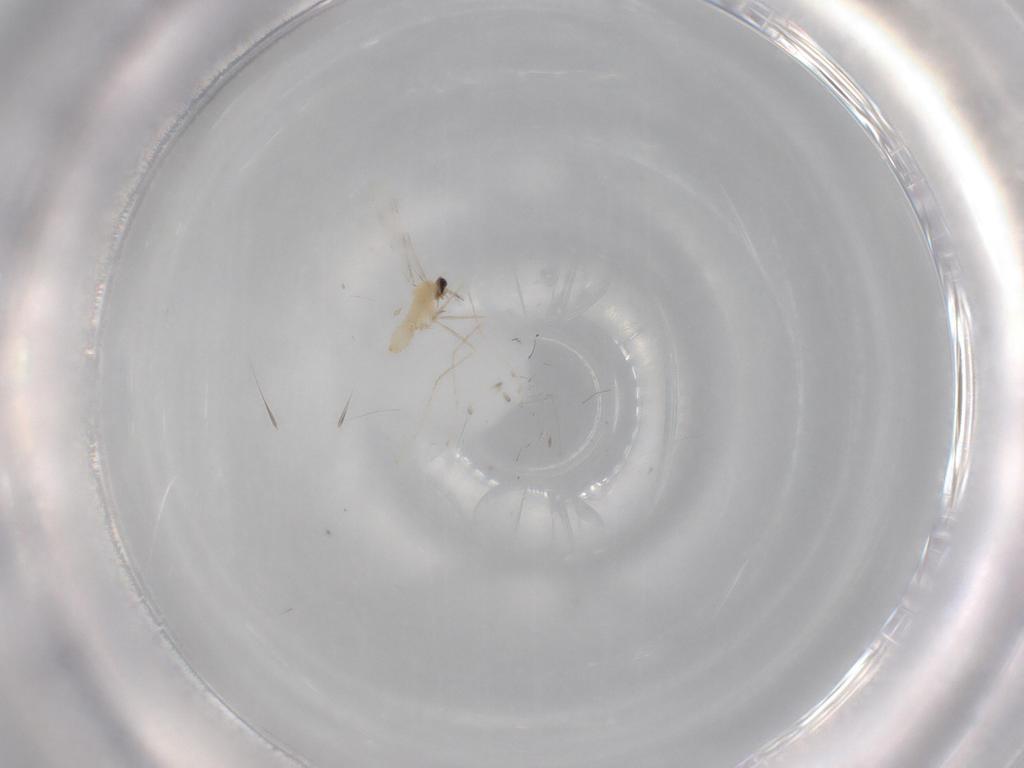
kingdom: Animalia
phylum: Arthropoda
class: Insecta
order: Diptera
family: Cecidomyiidae
